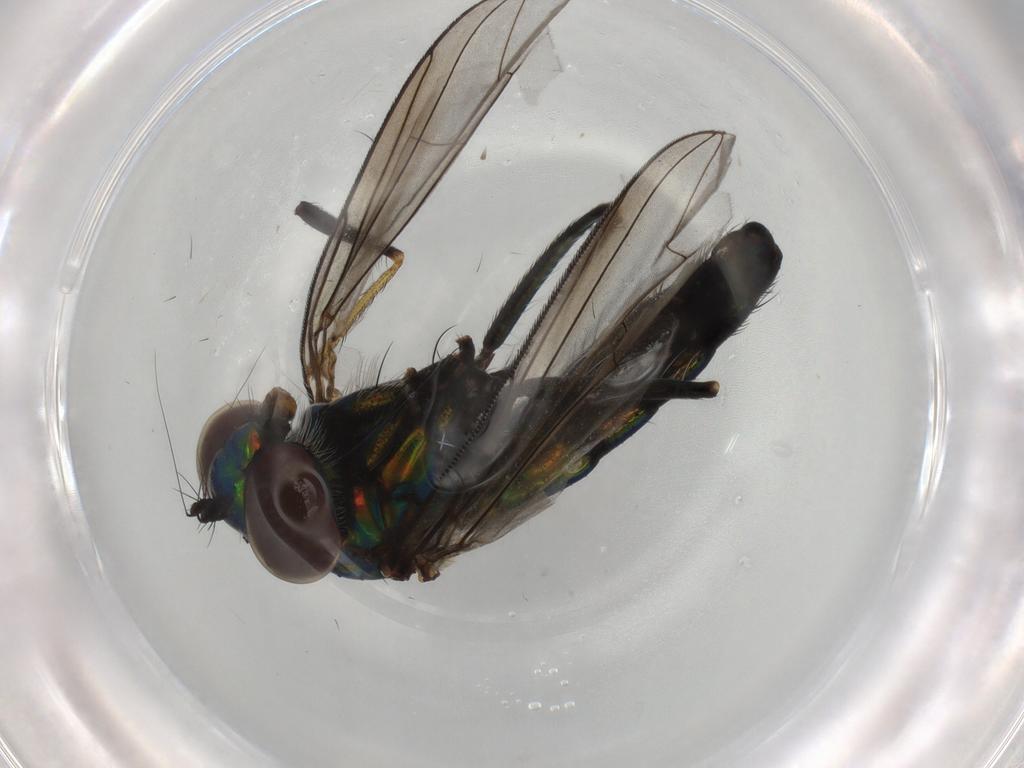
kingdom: Animalia
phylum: Arthropoda
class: Insecta
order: Diptera
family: Dolichopodidae
